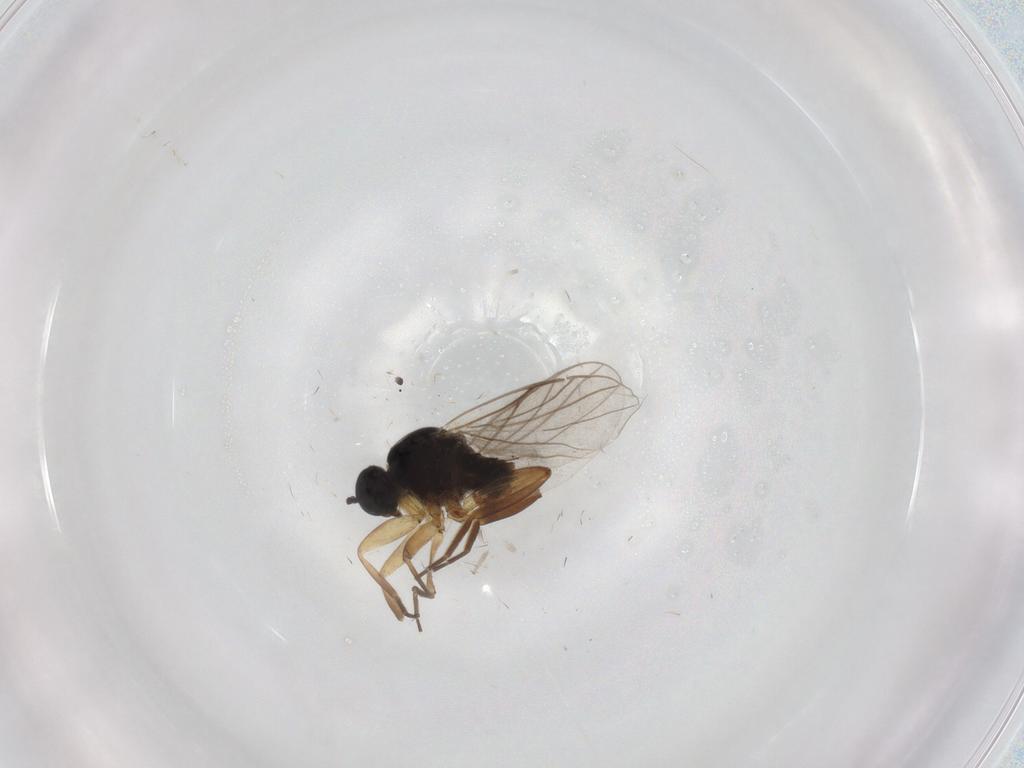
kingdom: Animalia
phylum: Arthropoda
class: Insecta
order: Diptera
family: Hybotidae
